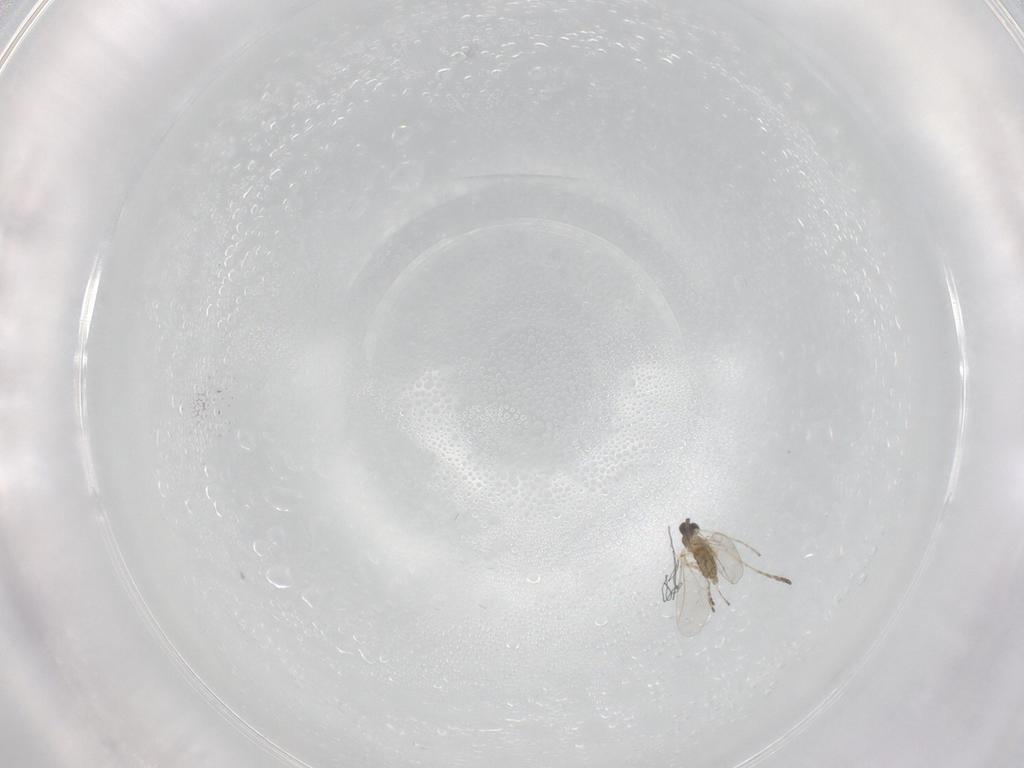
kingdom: Animalia
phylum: Arthropoda
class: Insecta
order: Diptera
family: Cecidomyiidae
